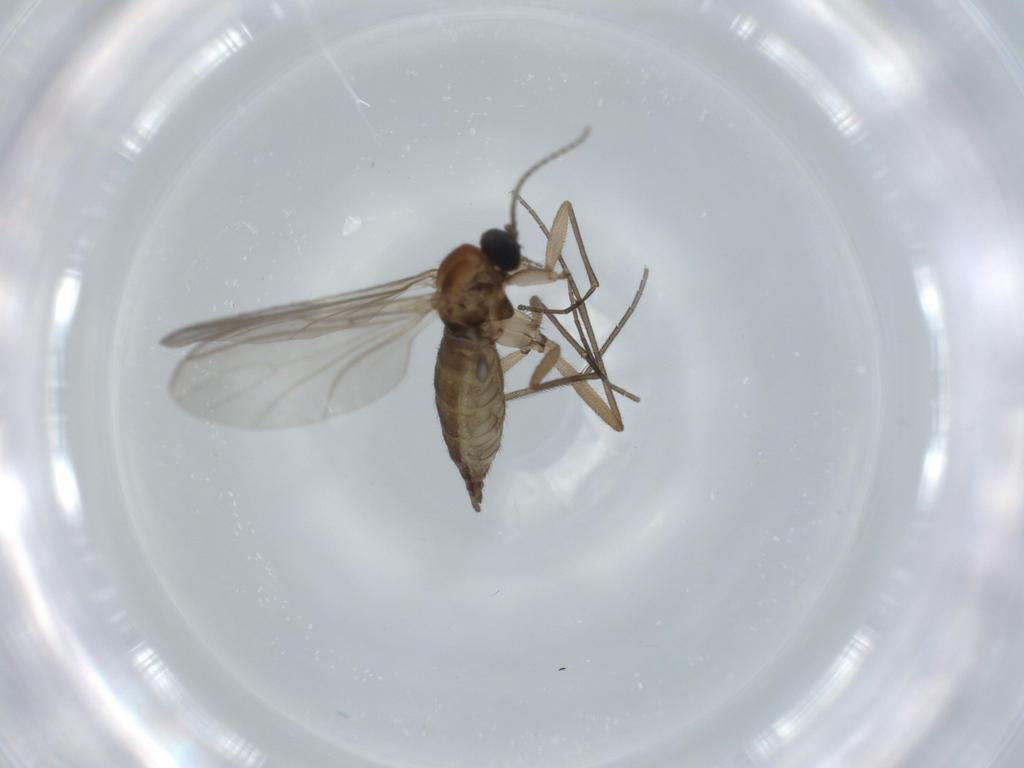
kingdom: Animalia
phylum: Arthropoda
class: Insecta
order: Diptera
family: Sciaridae
